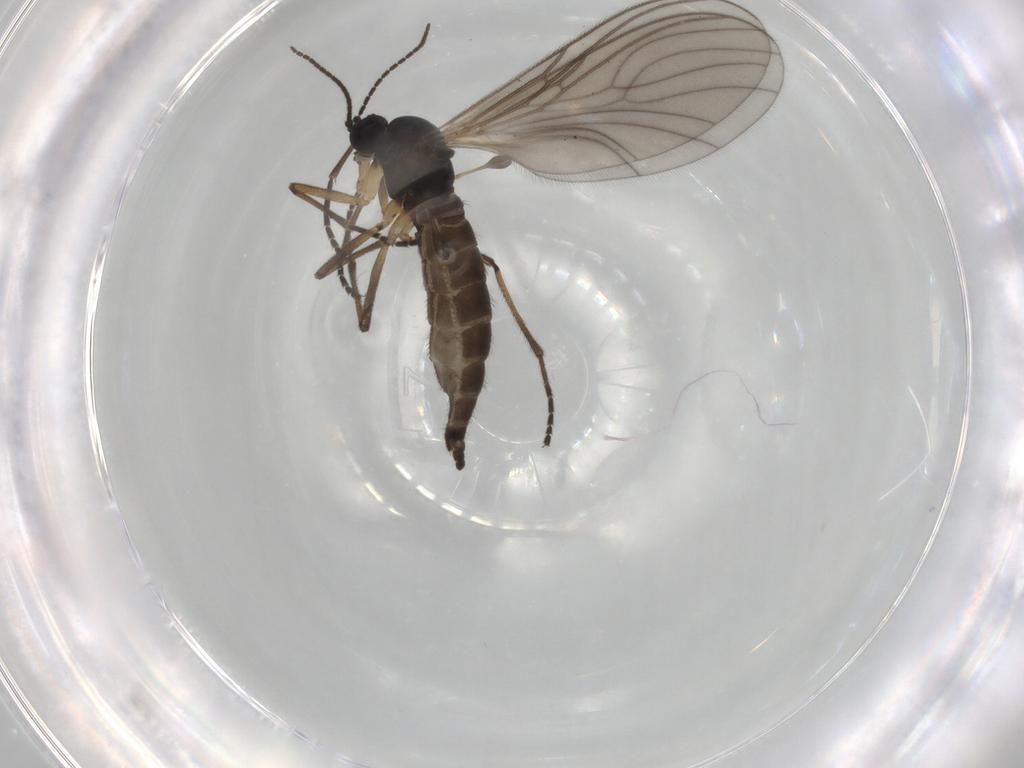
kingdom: Animalia
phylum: Arthropoda
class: Insecta
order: Diptera
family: Sciaridae
